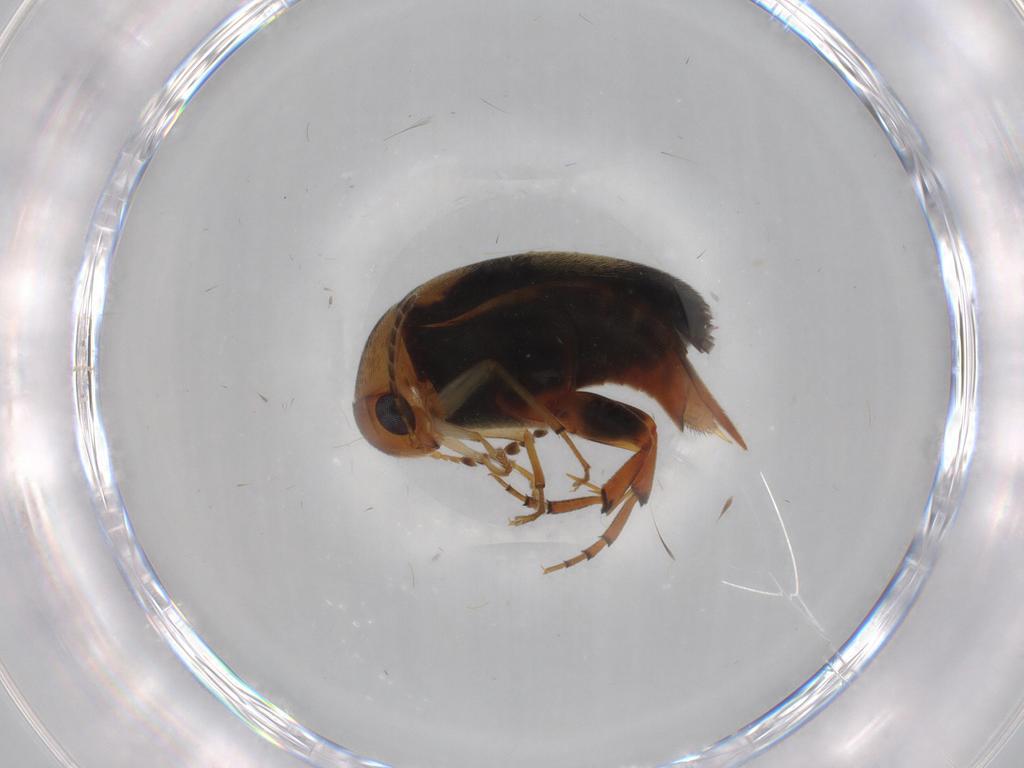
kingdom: Animalia
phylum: Arthropoda
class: Insecta
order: Coleoptera
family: Mordellidae
